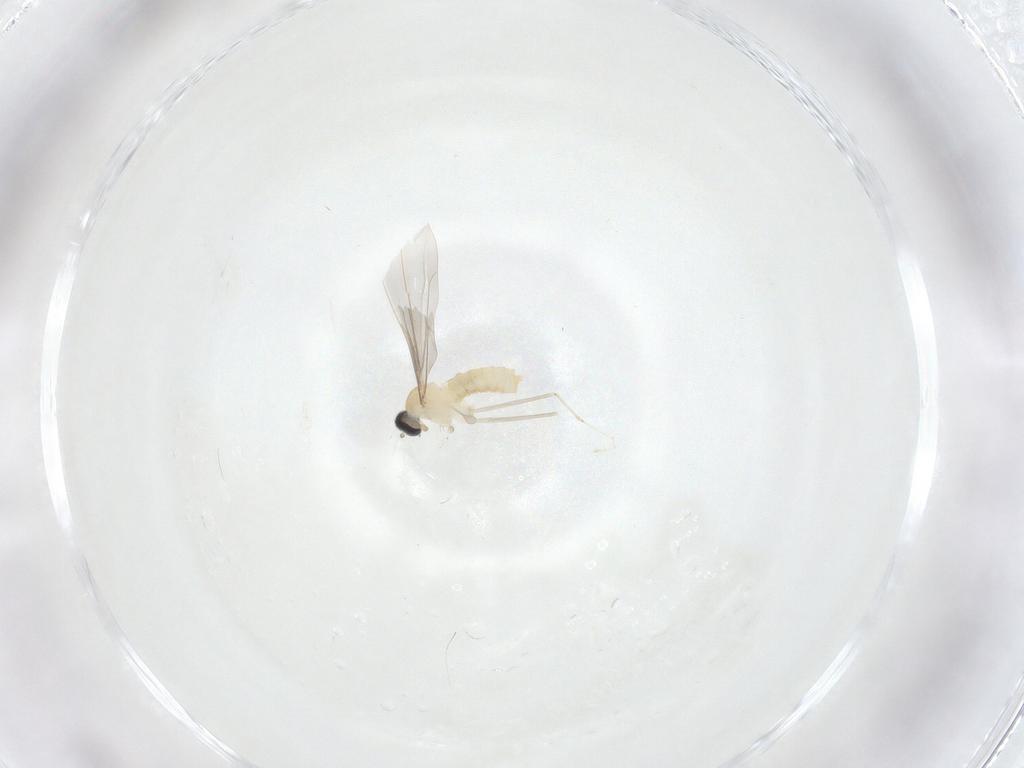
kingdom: Animalia
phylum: Arthropoda
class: Insecta
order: Diptera
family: Cecidomyiidae
